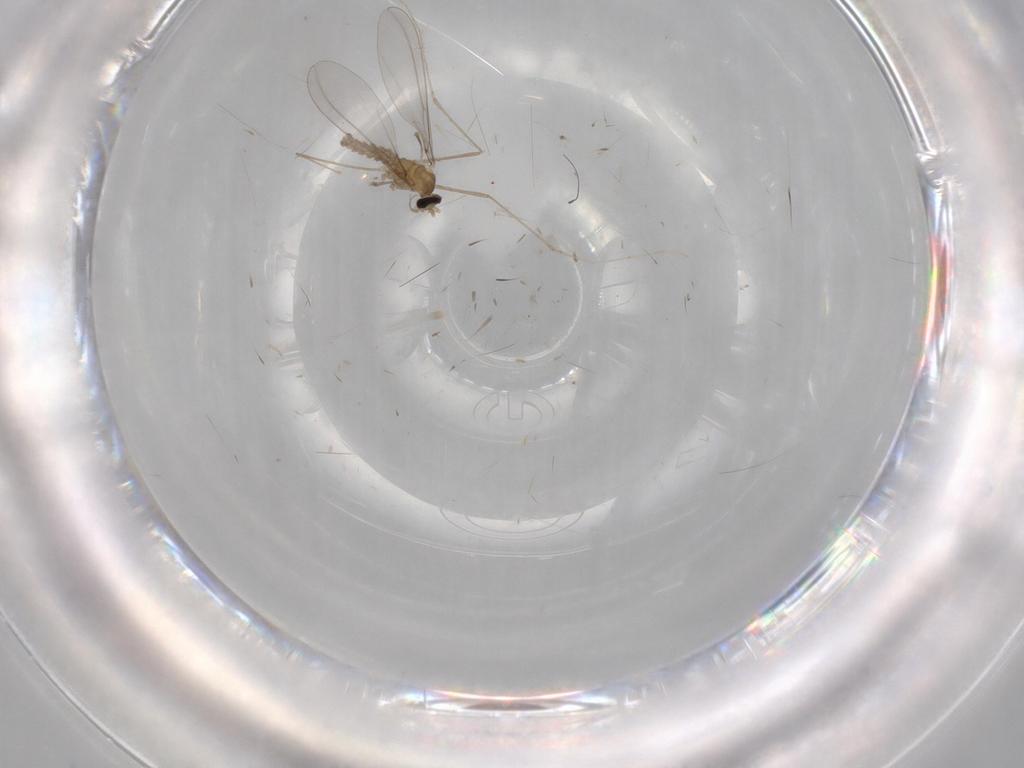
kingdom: Animalia
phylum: Arthropoda
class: Insecta
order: Diptera
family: Cecidomyiidae
